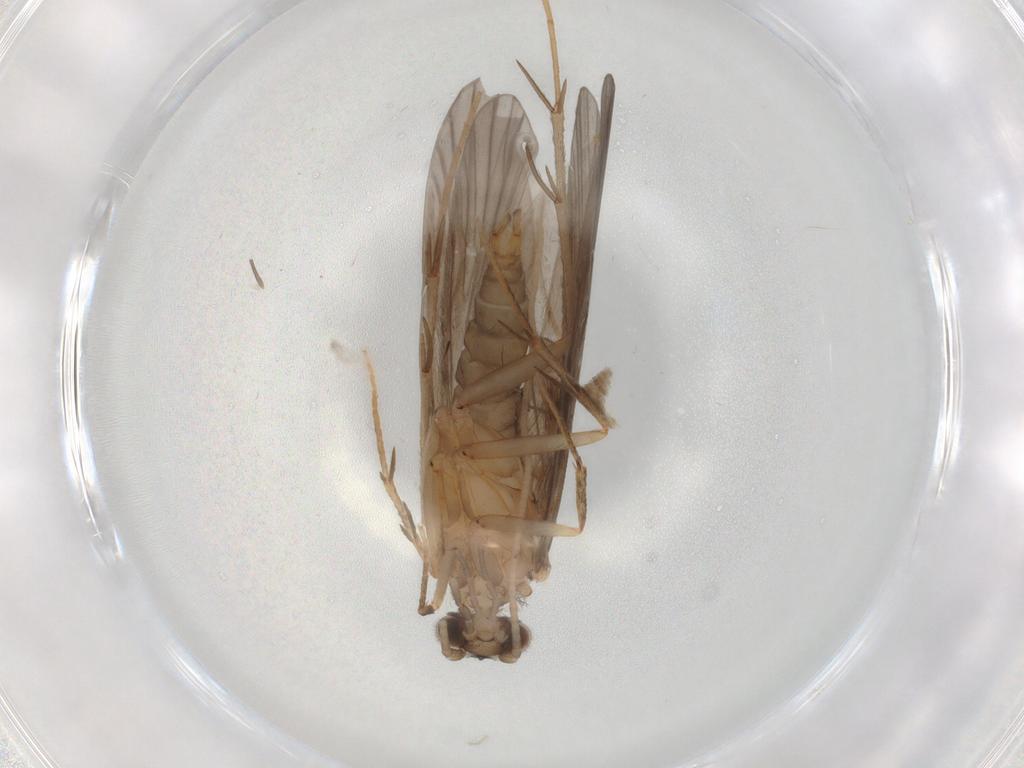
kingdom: Animalia
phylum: Arthropoda
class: Insecta
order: Trichoptera
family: Philopotamidae
